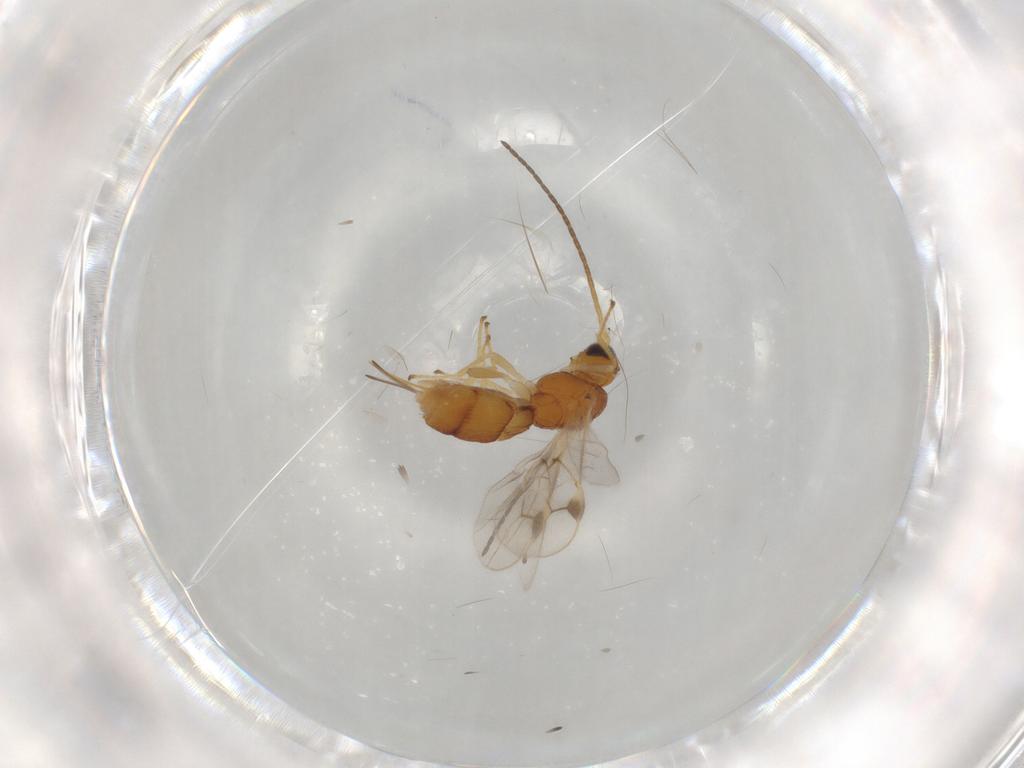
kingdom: Animalia
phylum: Arthropoda
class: Insecta
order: Hymenoptera
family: Braconidae
